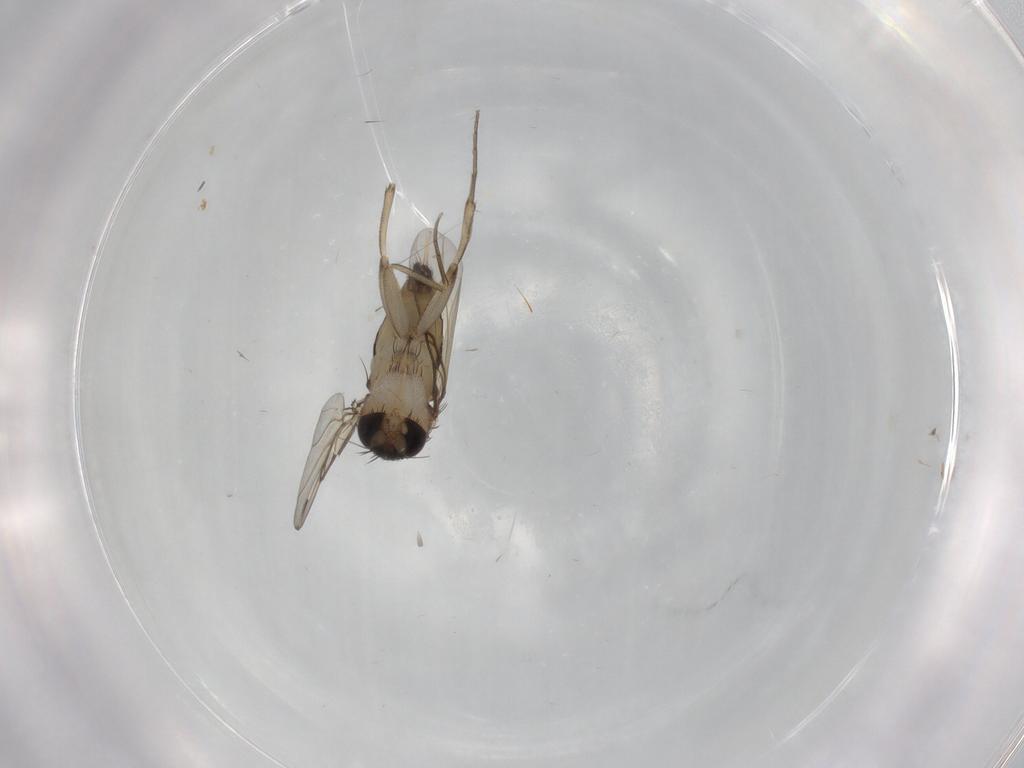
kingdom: Animalia
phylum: Arthropoda
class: Insecta
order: Diptera
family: Phoridae
